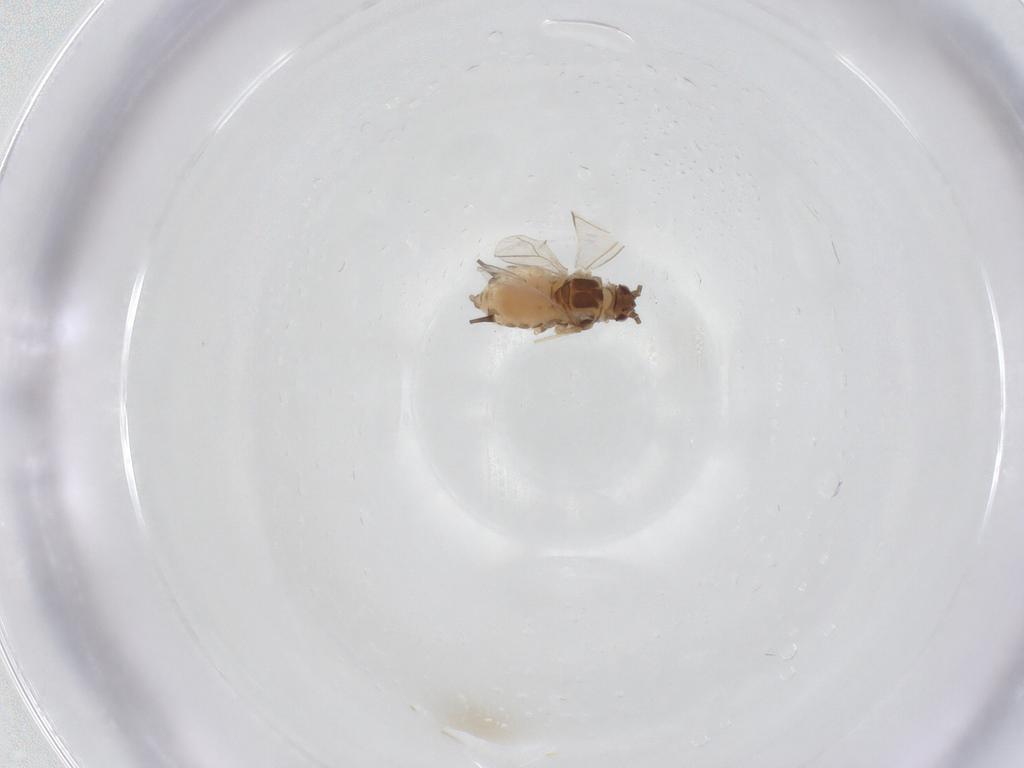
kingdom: Animalia
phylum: Arthropoda
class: Insecta
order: Hemiptera
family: Aphididae
